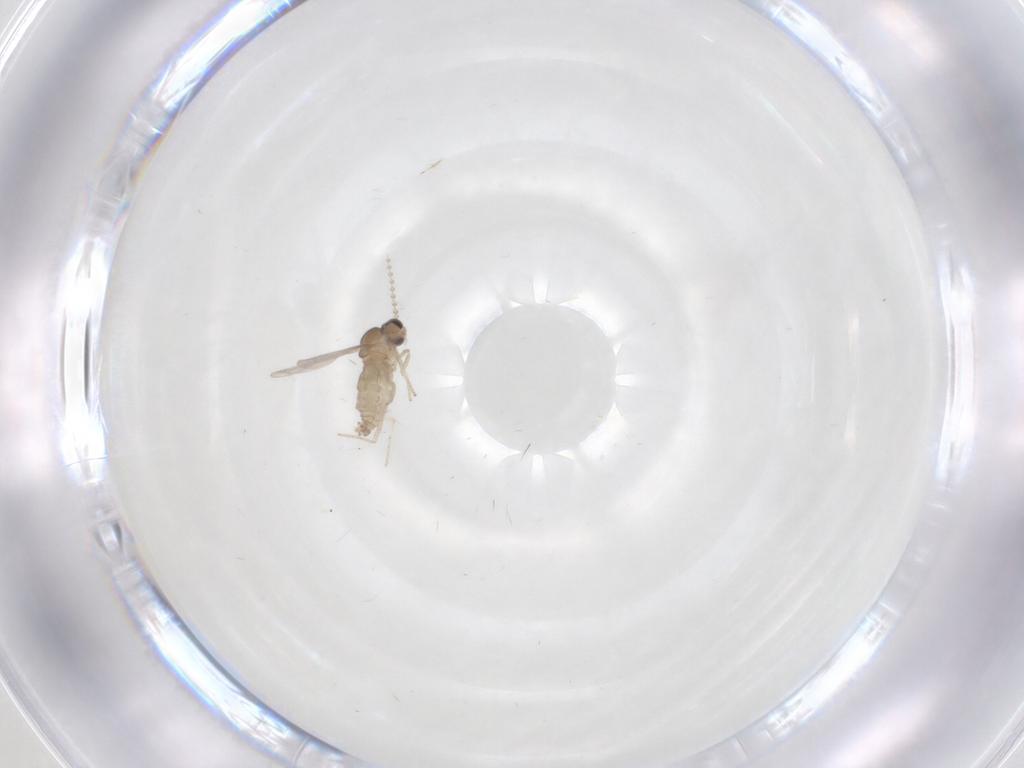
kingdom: Animalia
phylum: Arthropoda
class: Insecta
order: Diptera
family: Cecidomyiidae
